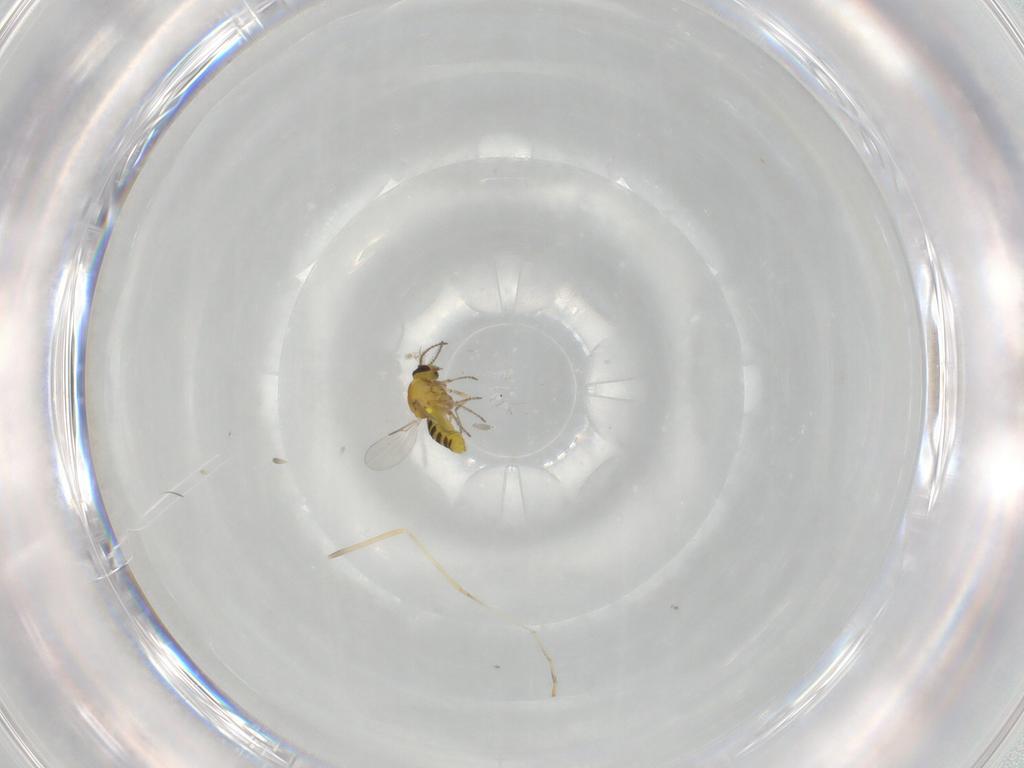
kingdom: Animalia
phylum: Arthropoda
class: Insecta
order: Diptera
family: Cecidomyiidae
